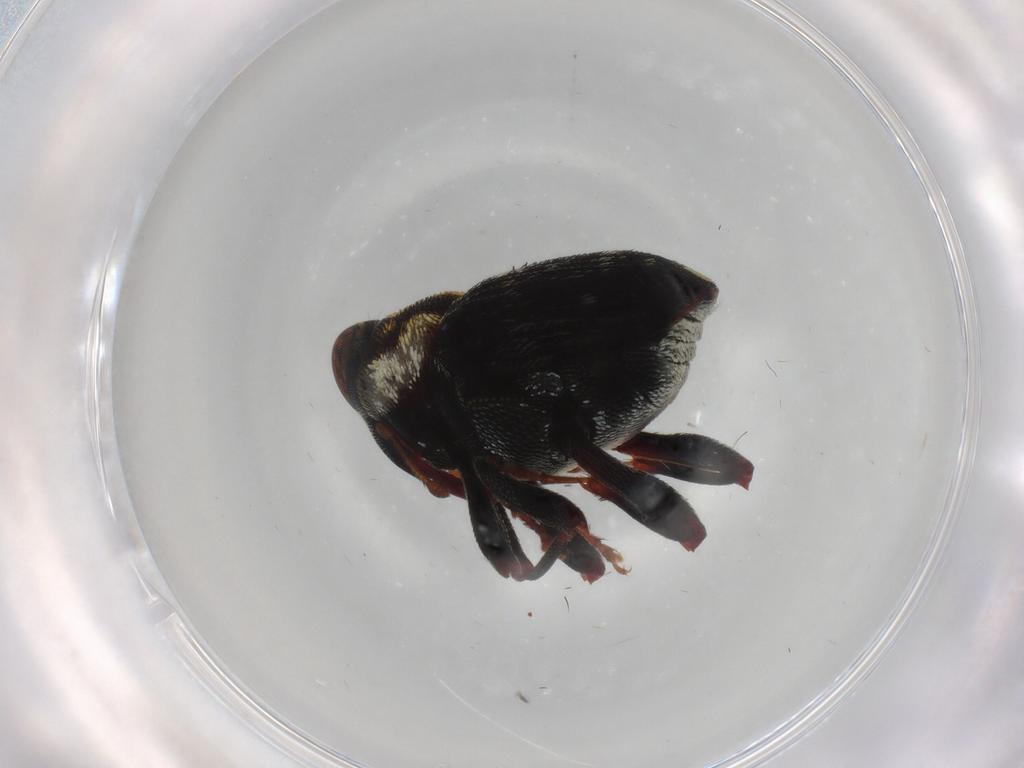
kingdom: Animalia
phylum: Arthropoda
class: Insecta
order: Coleoptera
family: Curculionidae
